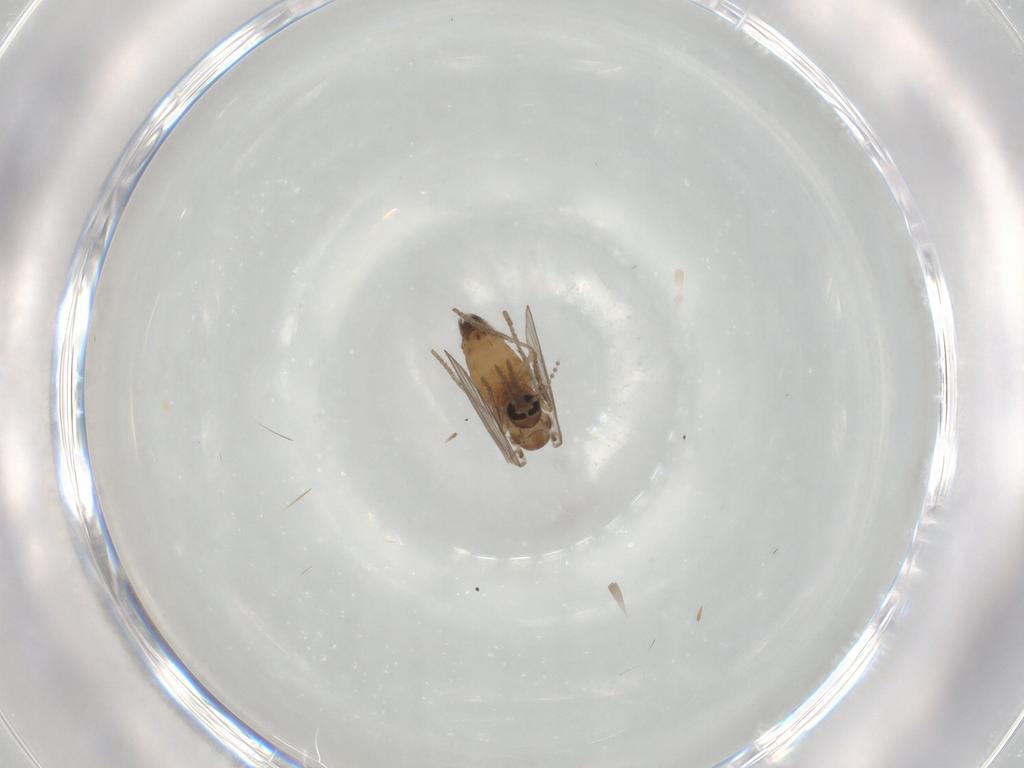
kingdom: Animalia
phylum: Arthropoda
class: Insecta
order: Diptera
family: Psychodidae
